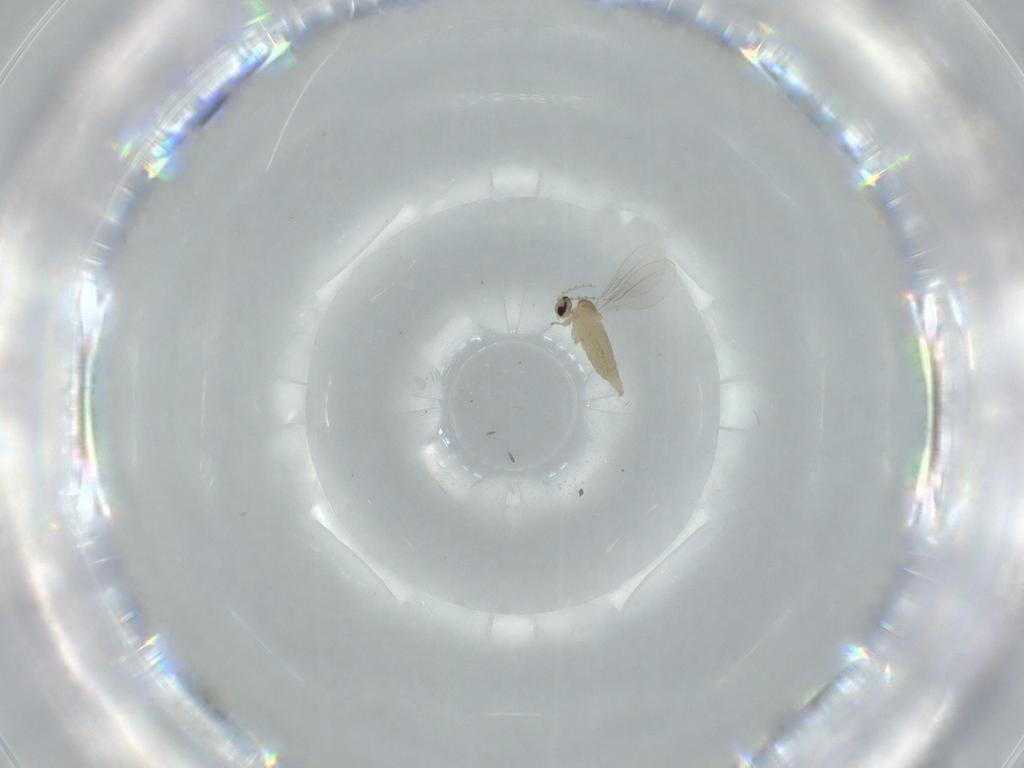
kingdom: Animalia
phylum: Arthropoda
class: Insecta
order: Diptera
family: Cecidomyiidae
